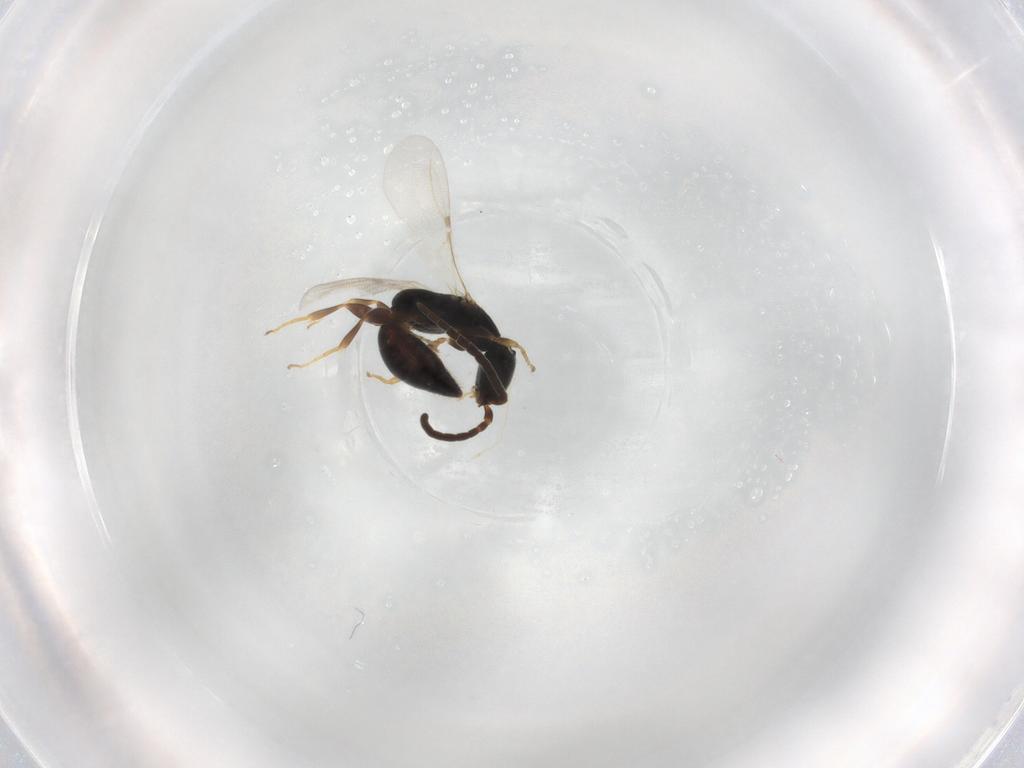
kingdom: Animalia
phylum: Arthropoda
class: Insecta
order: Hymenoptera
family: Bethylidae
